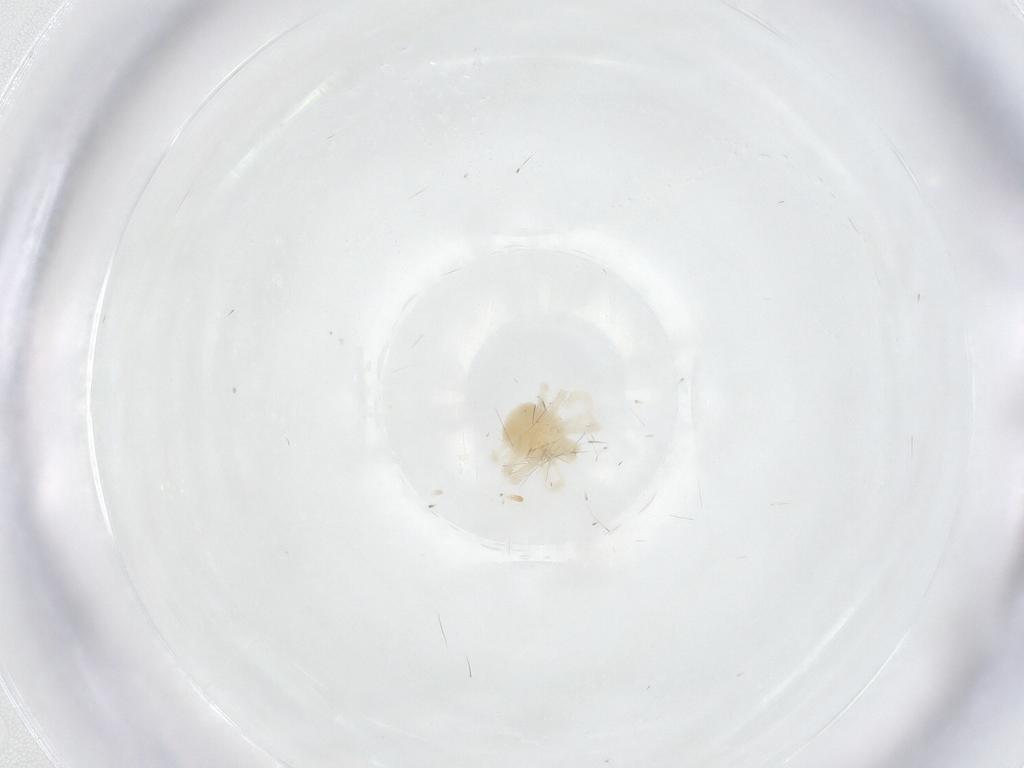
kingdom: Animalia
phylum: Arthropoda
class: Arachnida
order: Trombidiformes
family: Anystidae
